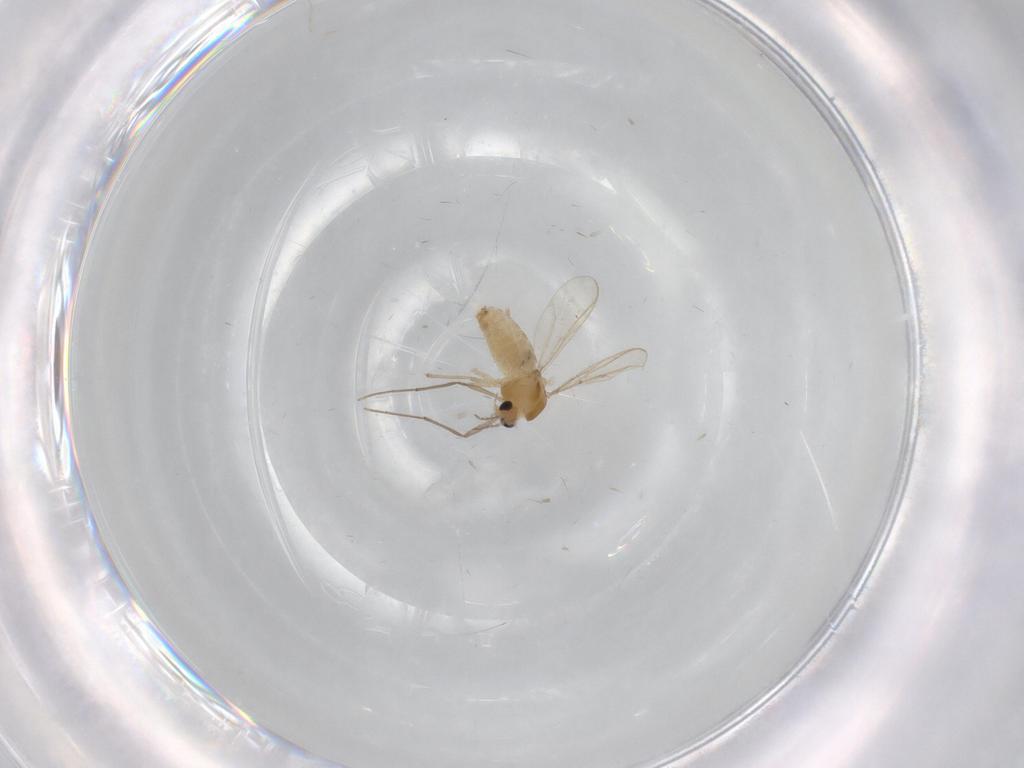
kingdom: Animalia
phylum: Arthropoda
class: Insecta
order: Diptera
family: Chironomidae
